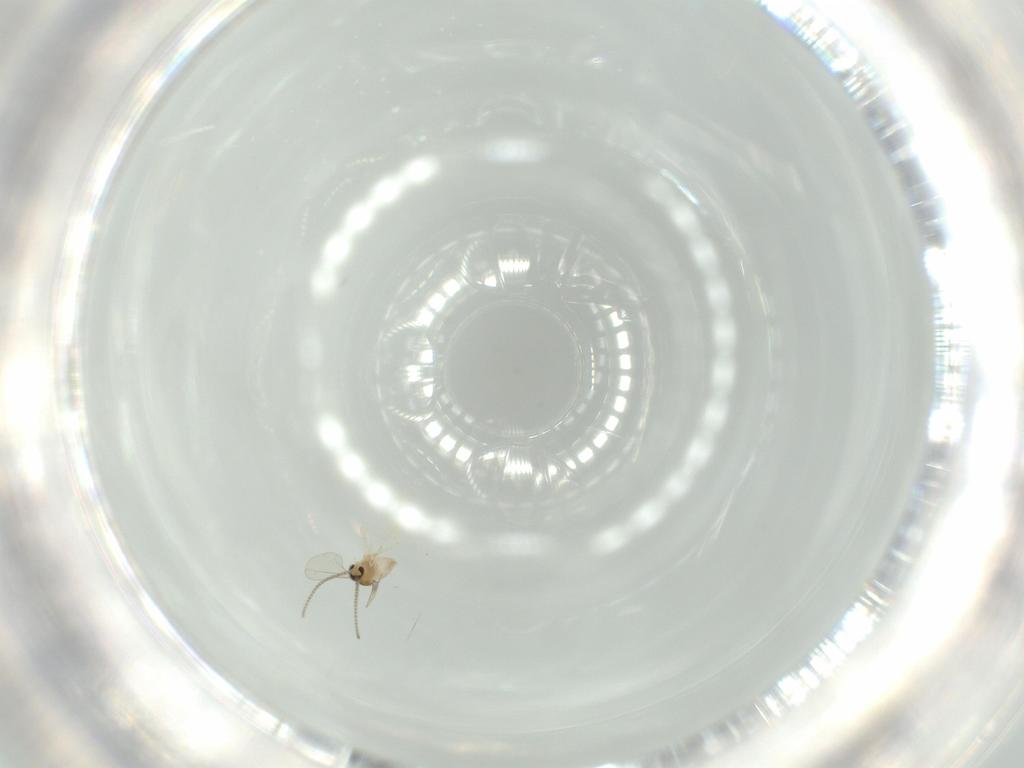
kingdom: Animalia
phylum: Arthropoda
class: Insecta
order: Diptera
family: Cecidomyiidae
